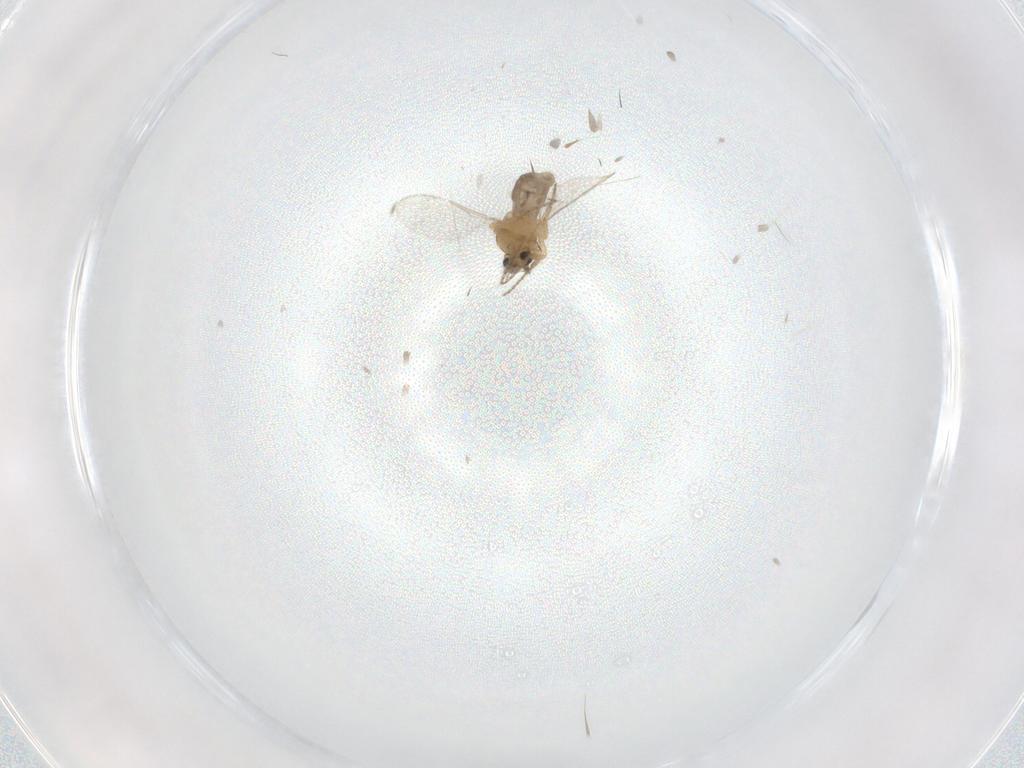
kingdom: Animalia
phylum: Arthropoda
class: Insecta
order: Diptera
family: Ceratopogonidae
